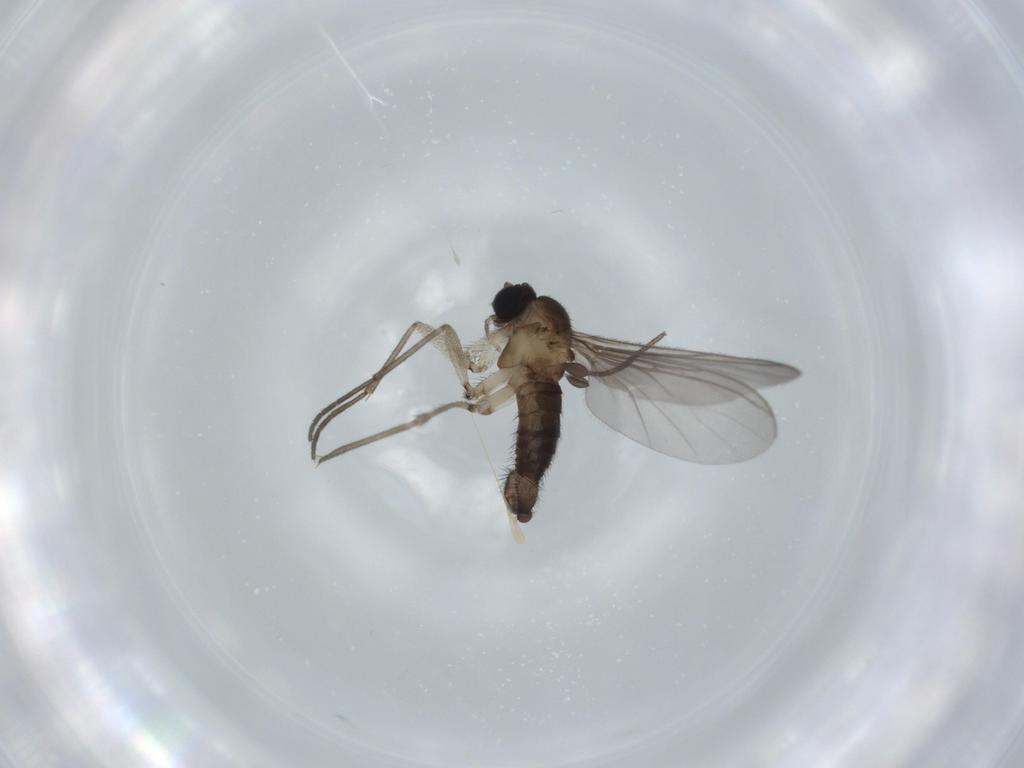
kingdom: Animalia
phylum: Arthropoda
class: Insecta
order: Diptera
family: Sciaridae
